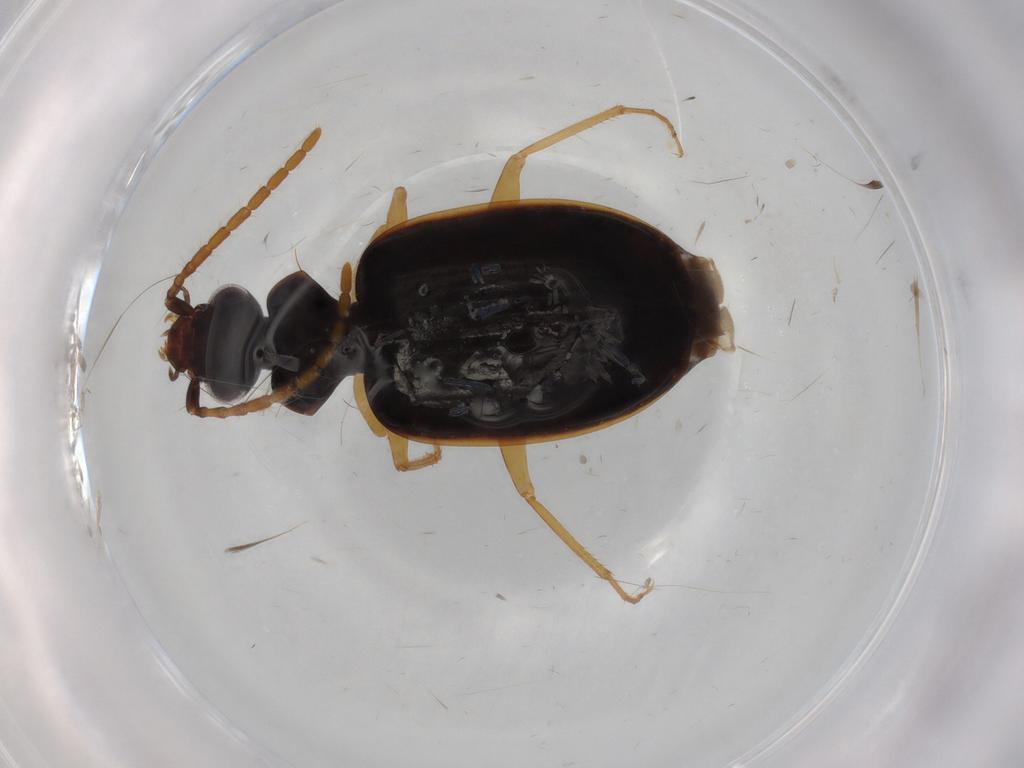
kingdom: Animalia
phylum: Arthropoda
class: Insecta
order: Coleoptera
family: Carabidae
